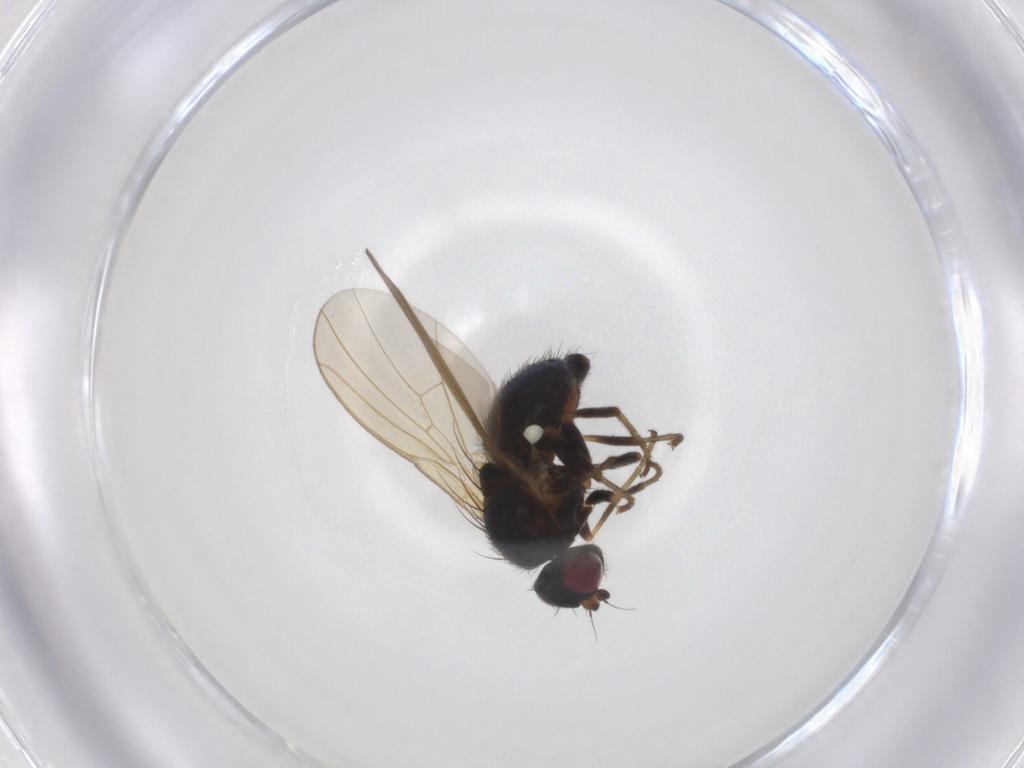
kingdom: Animalia
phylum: Arthropoda
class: Insecta
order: Diptera
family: Agromyzidae
